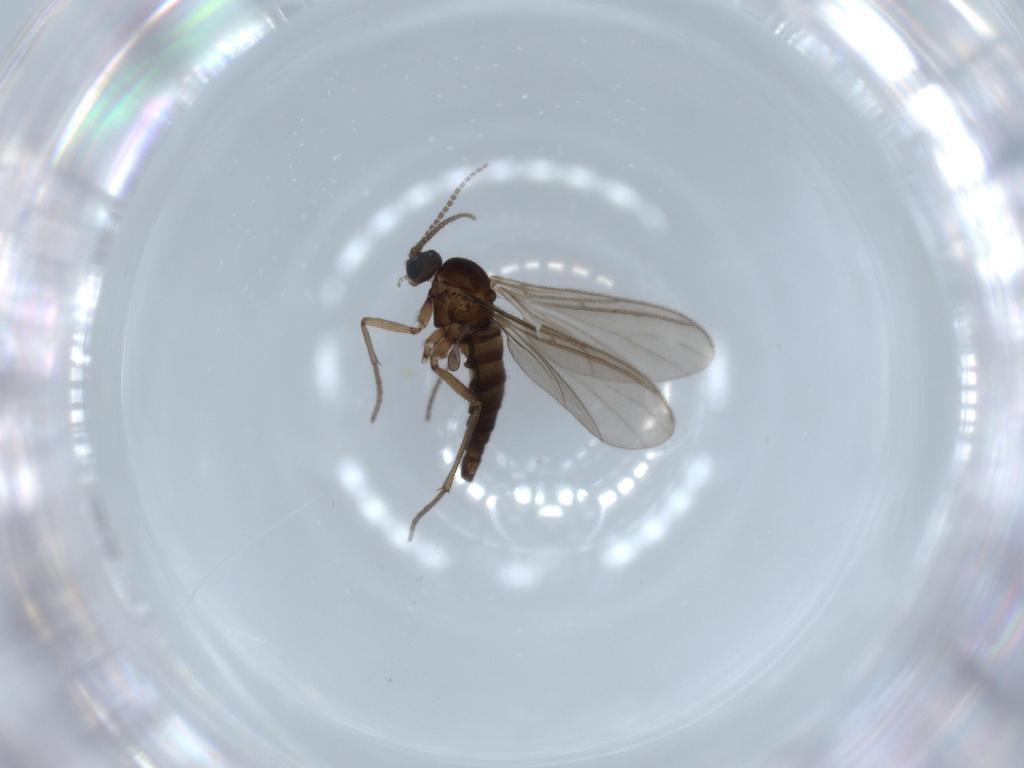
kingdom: Animalia
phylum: Arthropoda
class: Insecta
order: Diptera
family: Sciaridae
